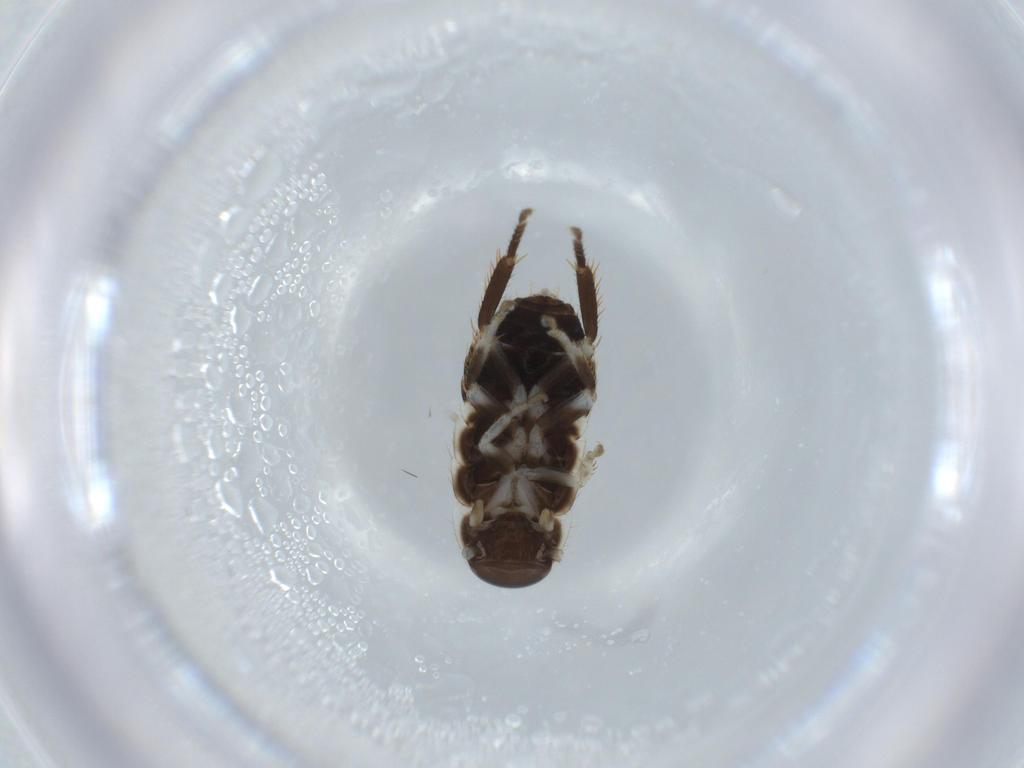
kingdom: Animalia
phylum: Arthropoda
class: Insecta
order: Blattodea
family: Ectobiidae
